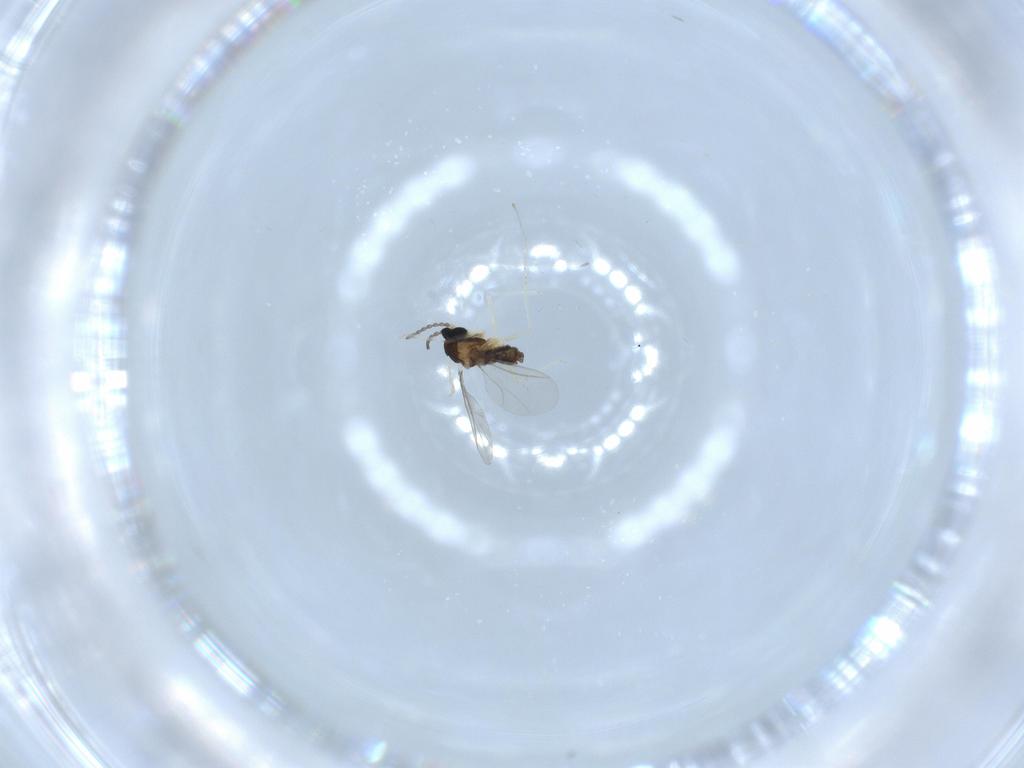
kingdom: Animalia
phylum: Arthropoda
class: Insecta
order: Diptera
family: Cecidomyiidae
